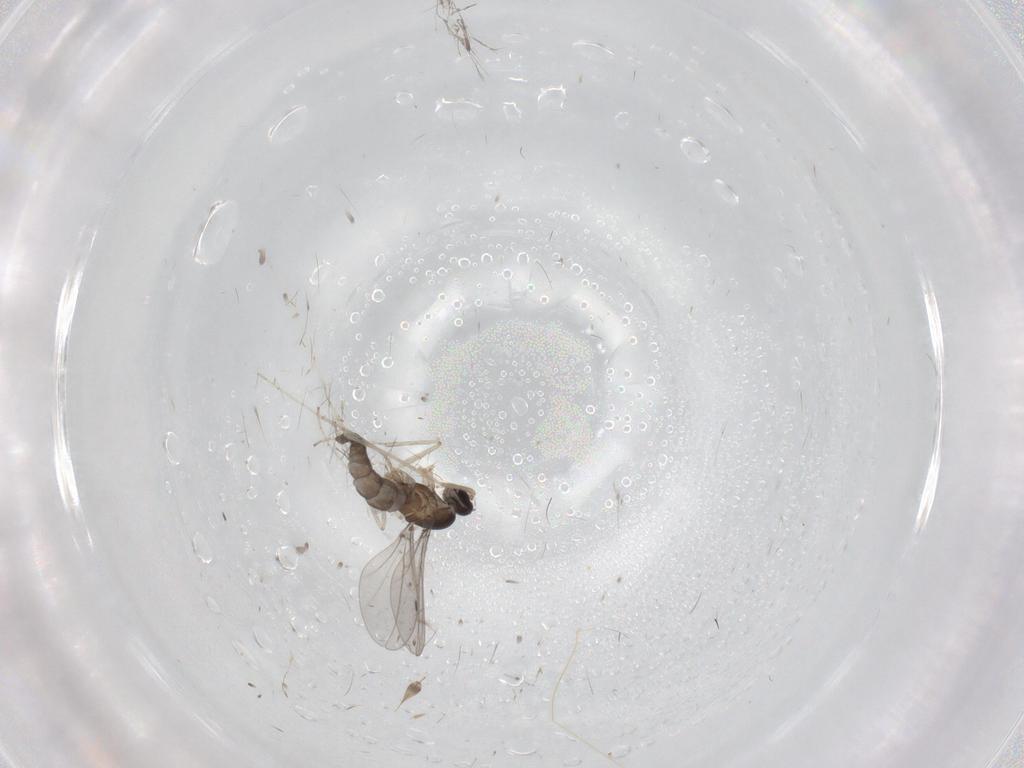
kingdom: Animalia
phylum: Arthropoda
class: Insecta
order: Diptera
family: Cecidomyiidae
